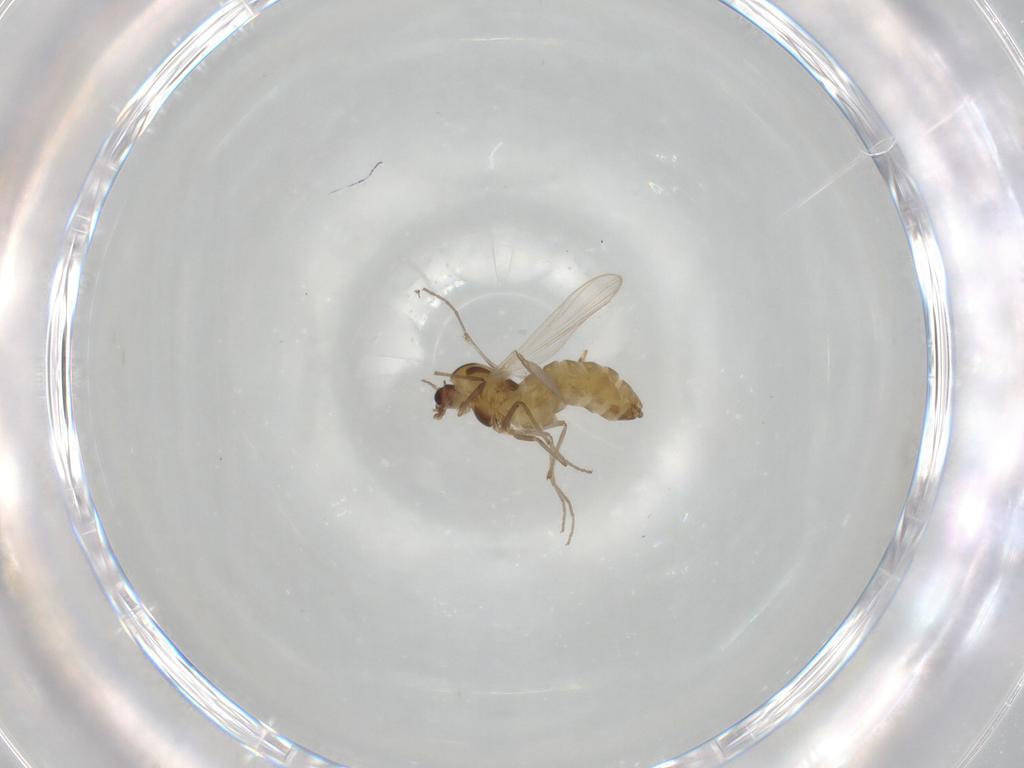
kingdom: Animalia
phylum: Arthropoda
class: Insecta
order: Diptera
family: Chironomidae
